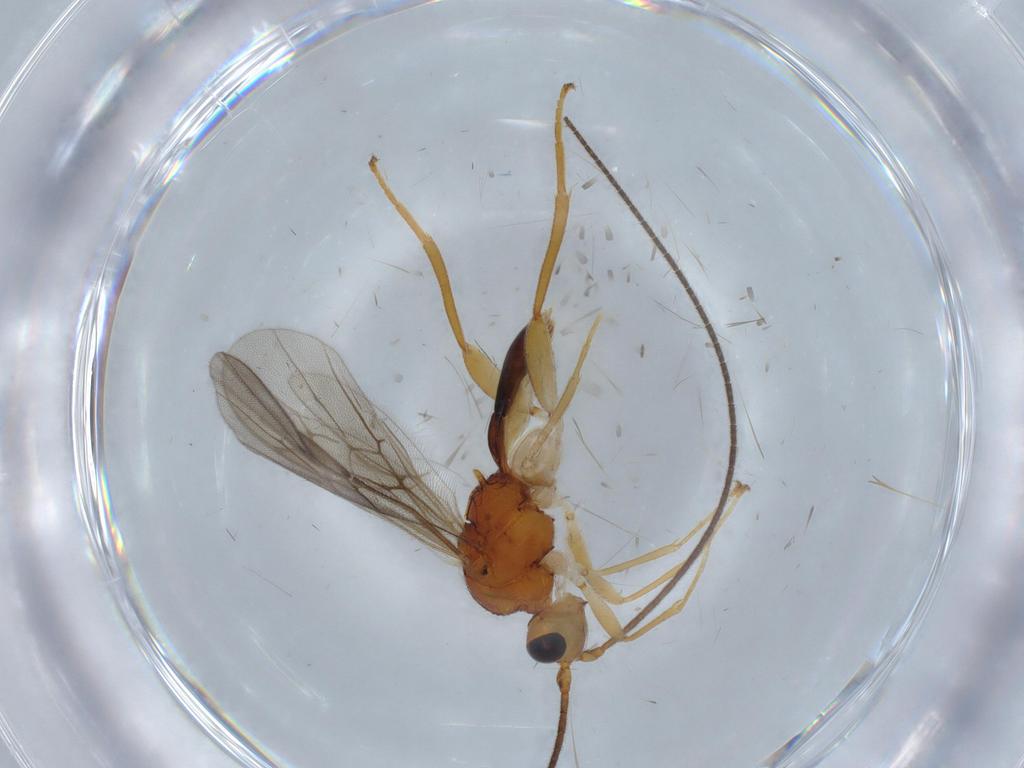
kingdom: Animalia
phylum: Arthropoda
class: Insecta
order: Hymenoptera
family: Braconidae
